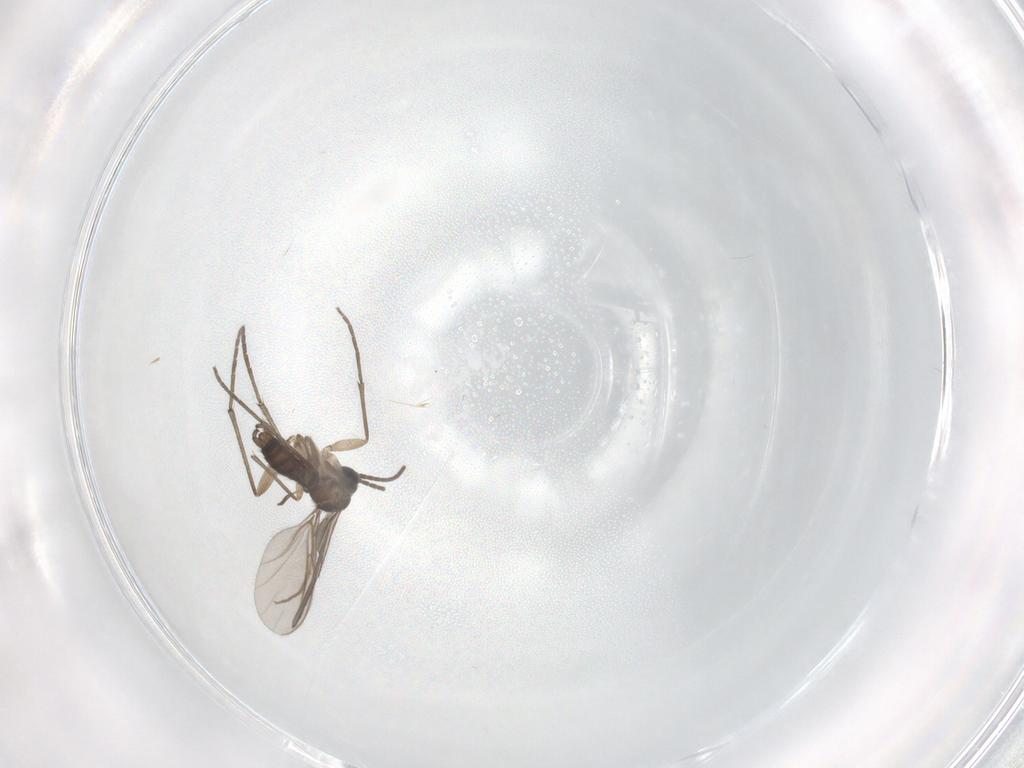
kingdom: Animalia
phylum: Arthropoda
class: Insecta
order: Diptera
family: Sciaridae
